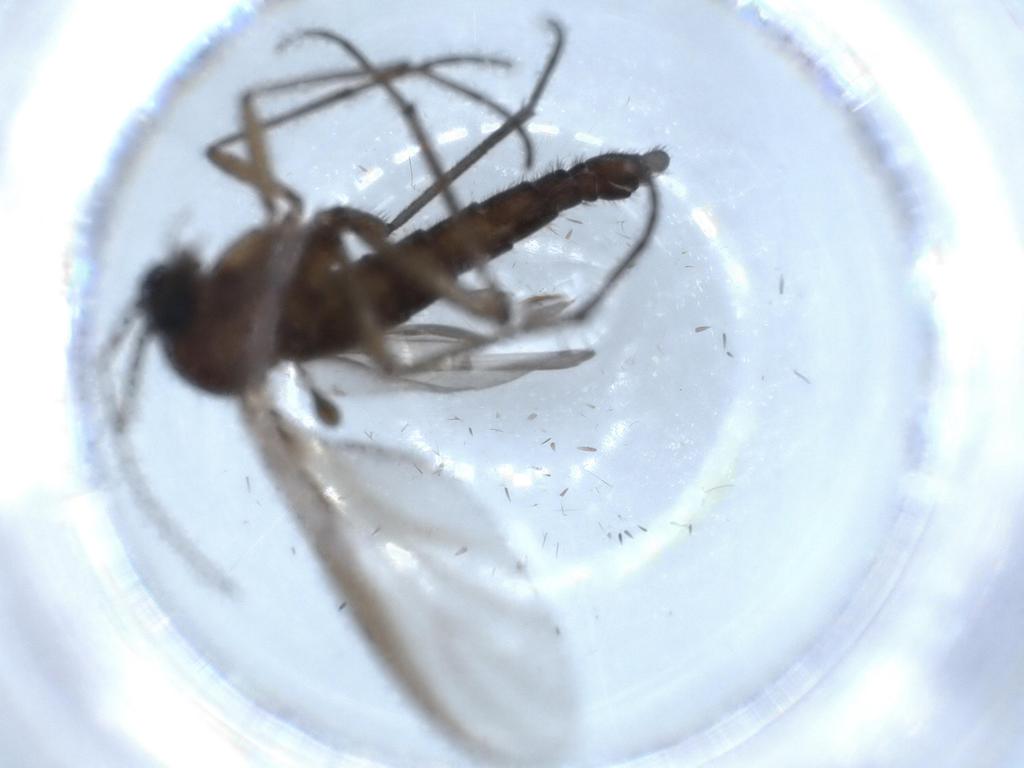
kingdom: Animalia
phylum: Arthropoda
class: Insecta
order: Diptera
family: Simuliidae
